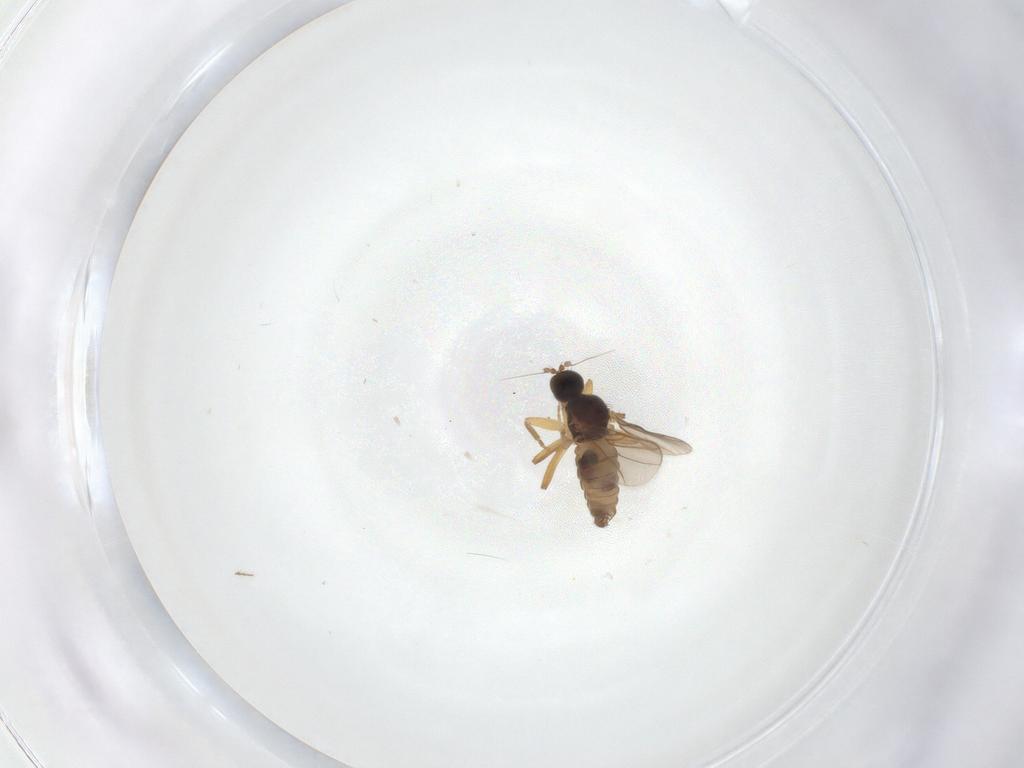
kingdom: Animalia
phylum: Arthropoda
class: Insecta
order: Diptera
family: Hybotidae
